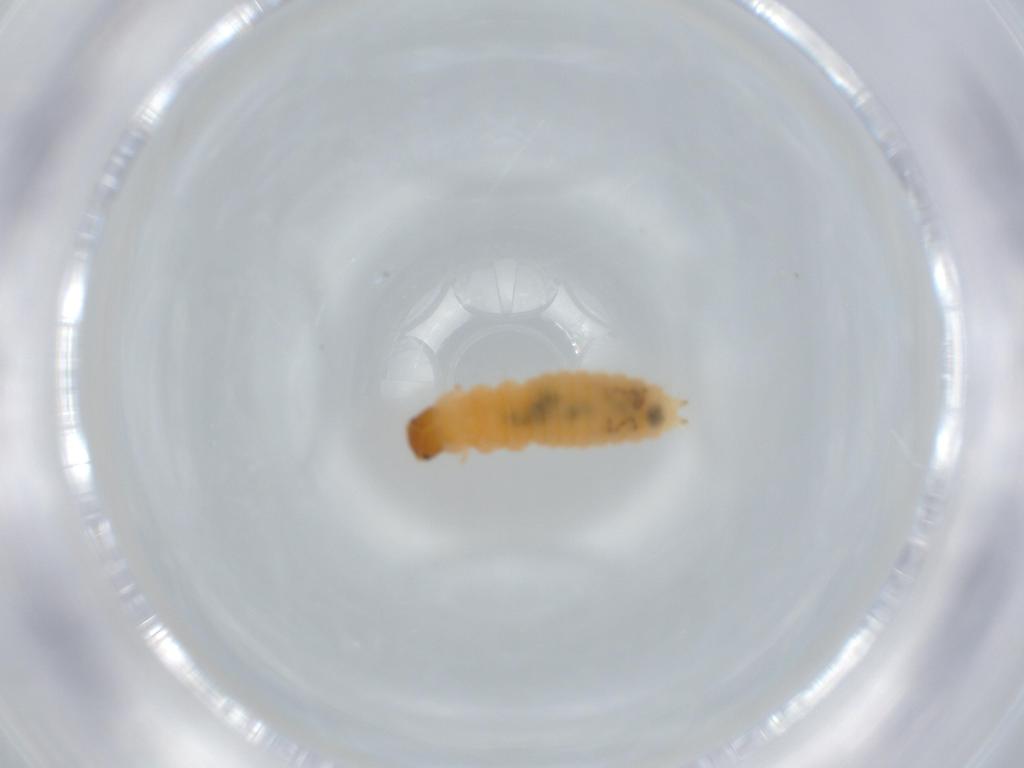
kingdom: Animalia
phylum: Arthropoda
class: Insecta
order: Coleoptera
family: Melyridae
